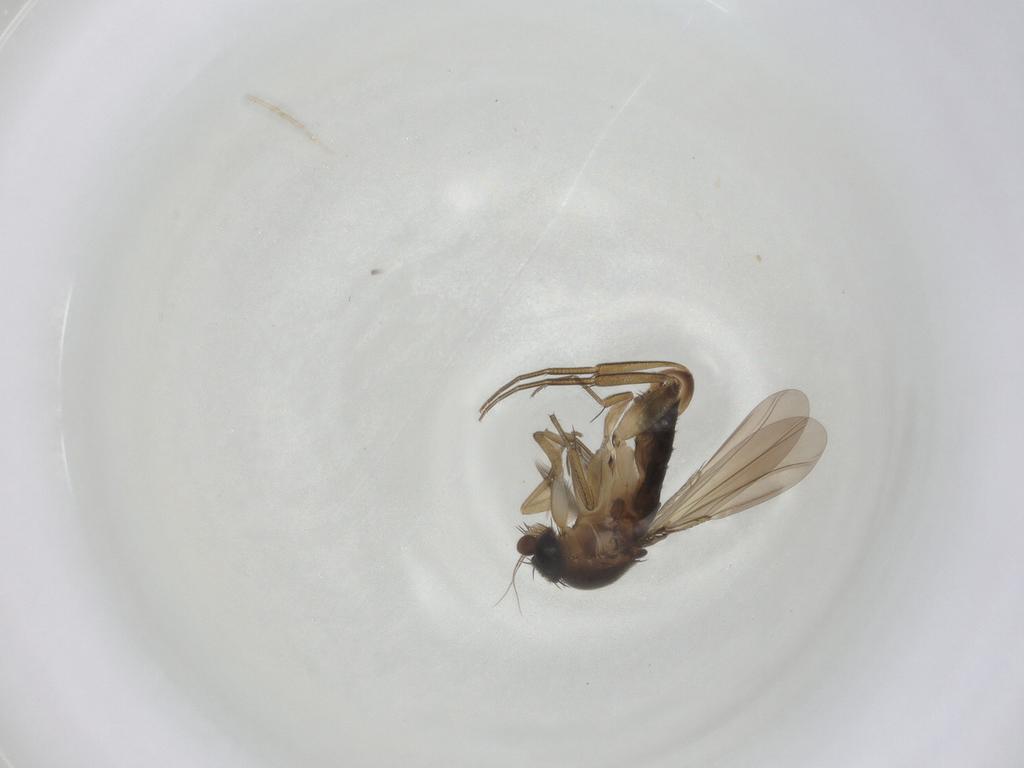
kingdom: Animalia
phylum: Arthropoda
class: Insecta
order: Diptera
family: Phoridae
